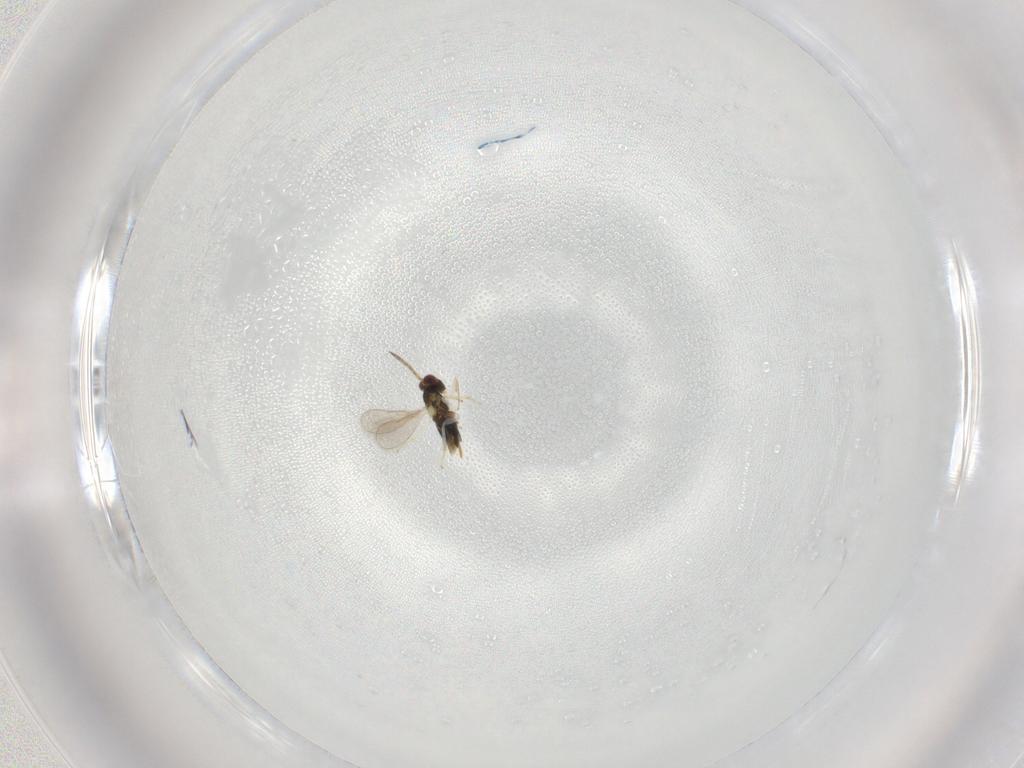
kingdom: Animalia
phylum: Arthropoda
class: Insecta
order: Hymenoptera
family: Aphelinidae
